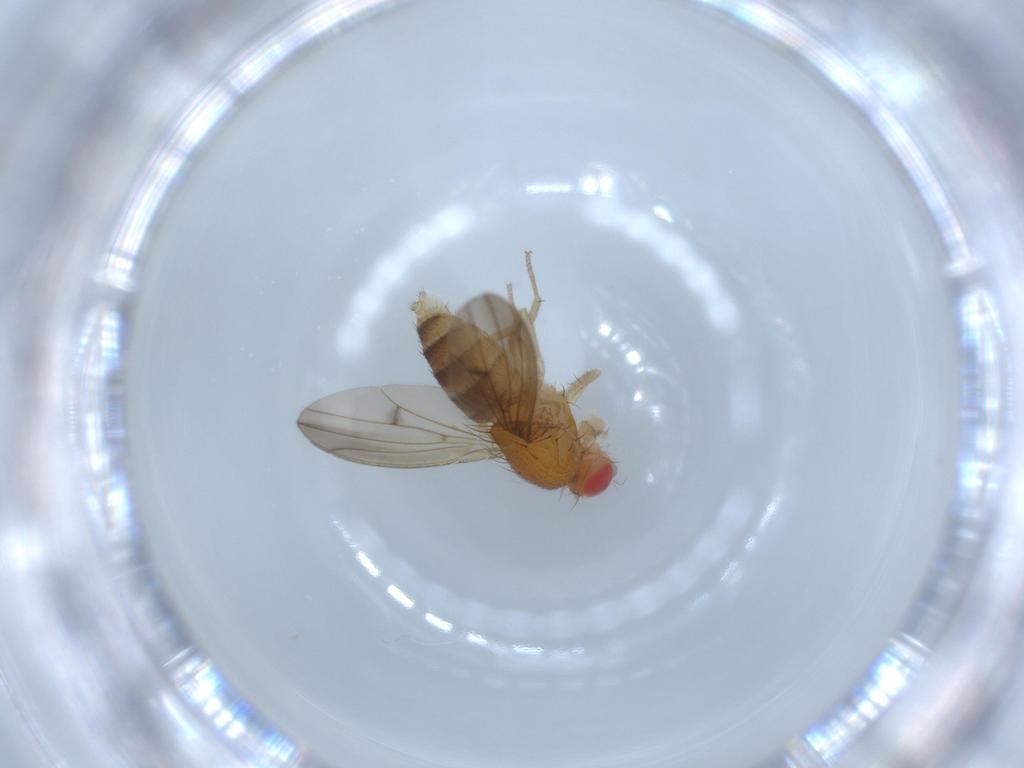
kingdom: Animalia
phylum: Arthropoda
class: Insecta
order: Diptera
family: Drosophilidae
